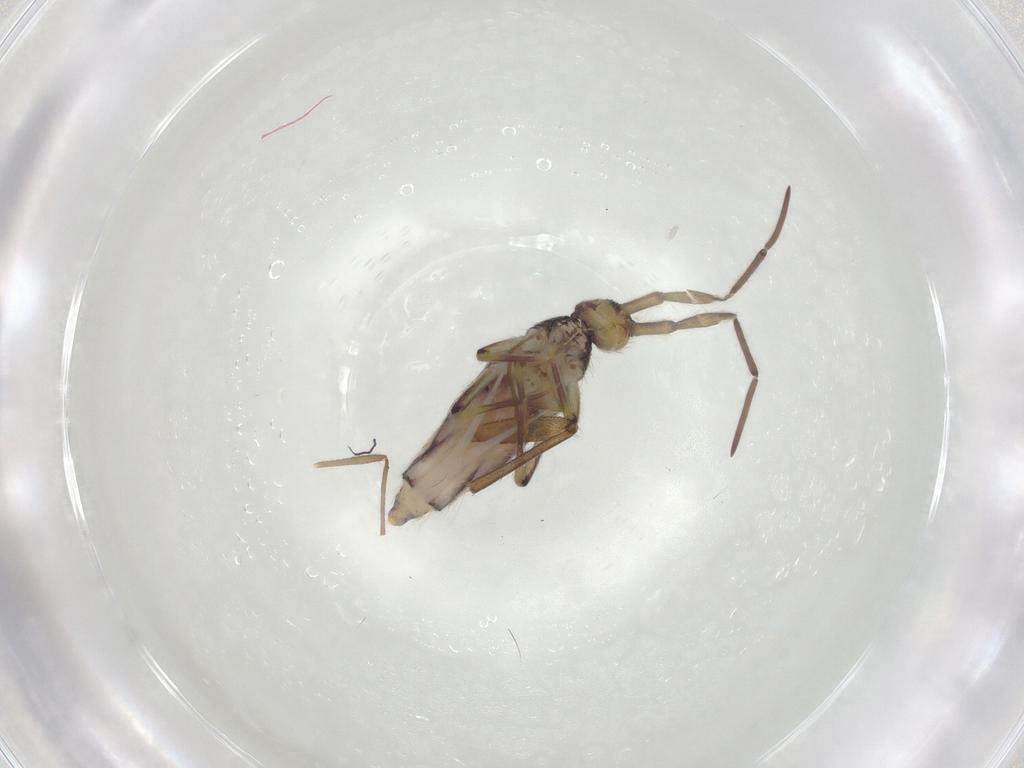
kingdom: Animalia
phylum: Arthropoda
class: Collembola
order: Entomobryomorpha
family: Entomobryidae
